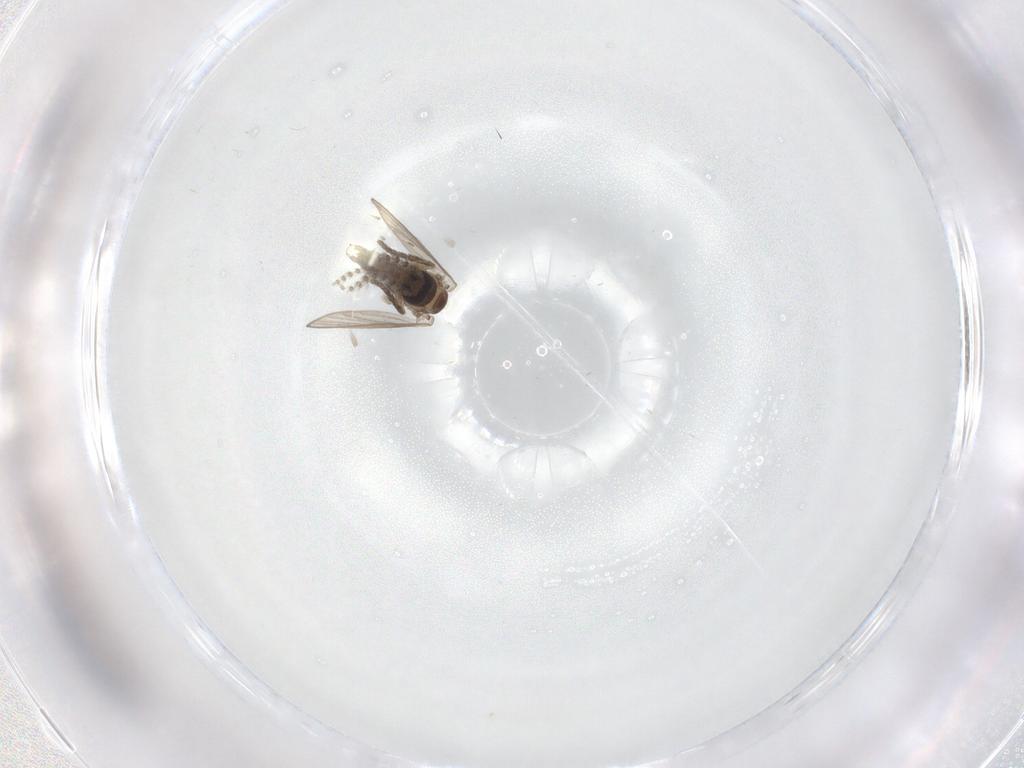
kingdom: Animalia
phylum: Arthropoda
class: Insecta
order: Diptera
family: Psychodidae
